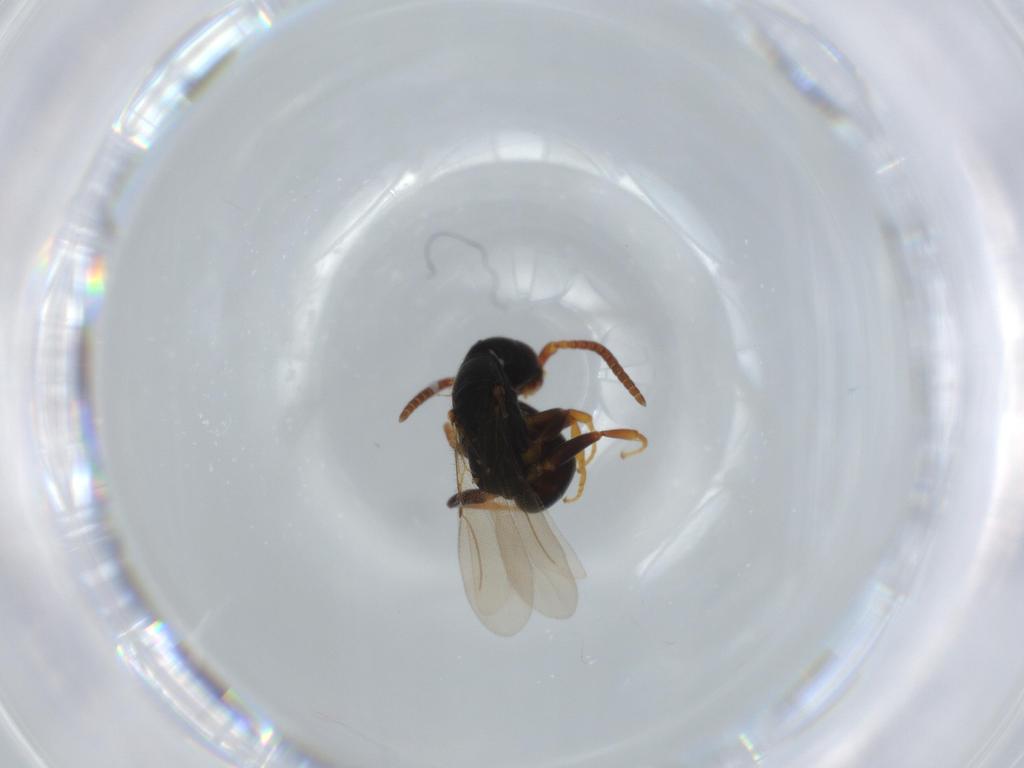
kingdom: Animalia
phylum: Arthropoda
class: Insecta
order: Hymenoptera
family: Bethylidae
